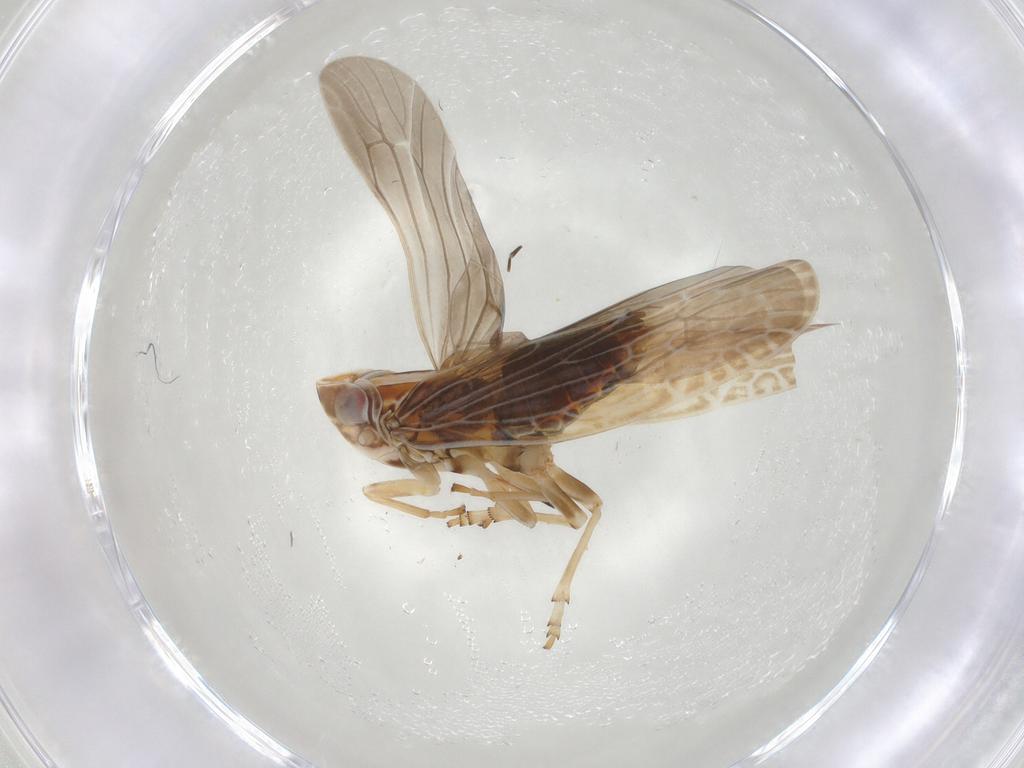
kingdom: Animalia
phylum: Arthropoda
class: Insecta
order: Hemiptera
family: Achilidae
